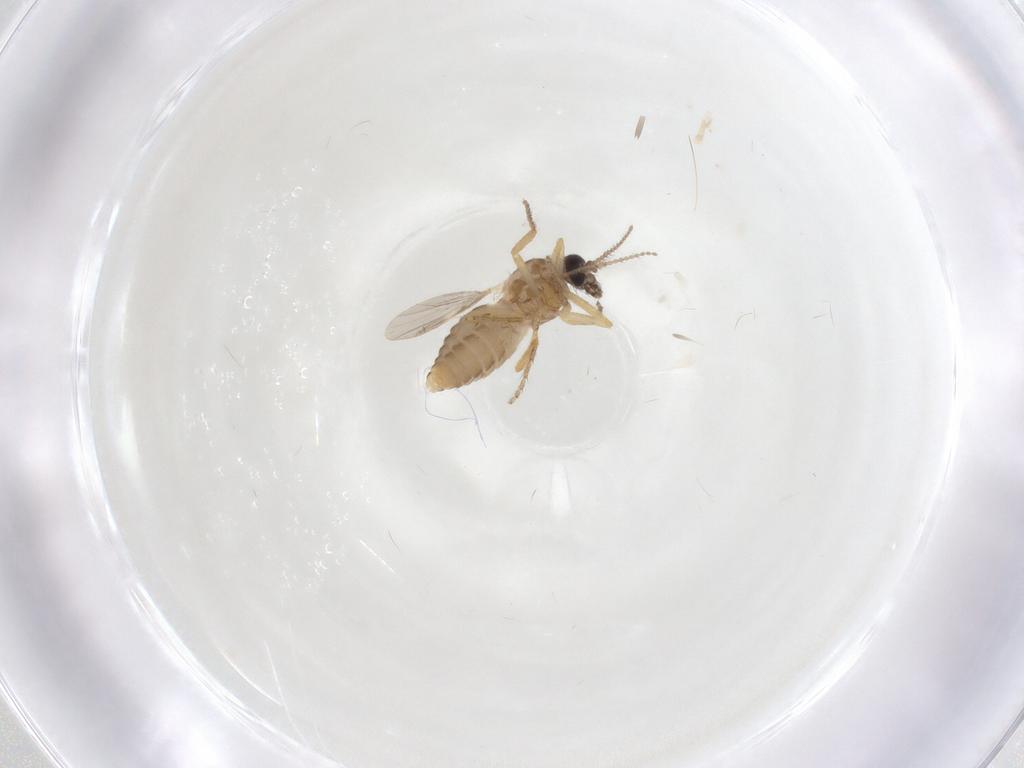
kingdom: Animalia
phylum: Arthropoda
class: Insecta
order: Diptera
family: Ceratopogonidae
